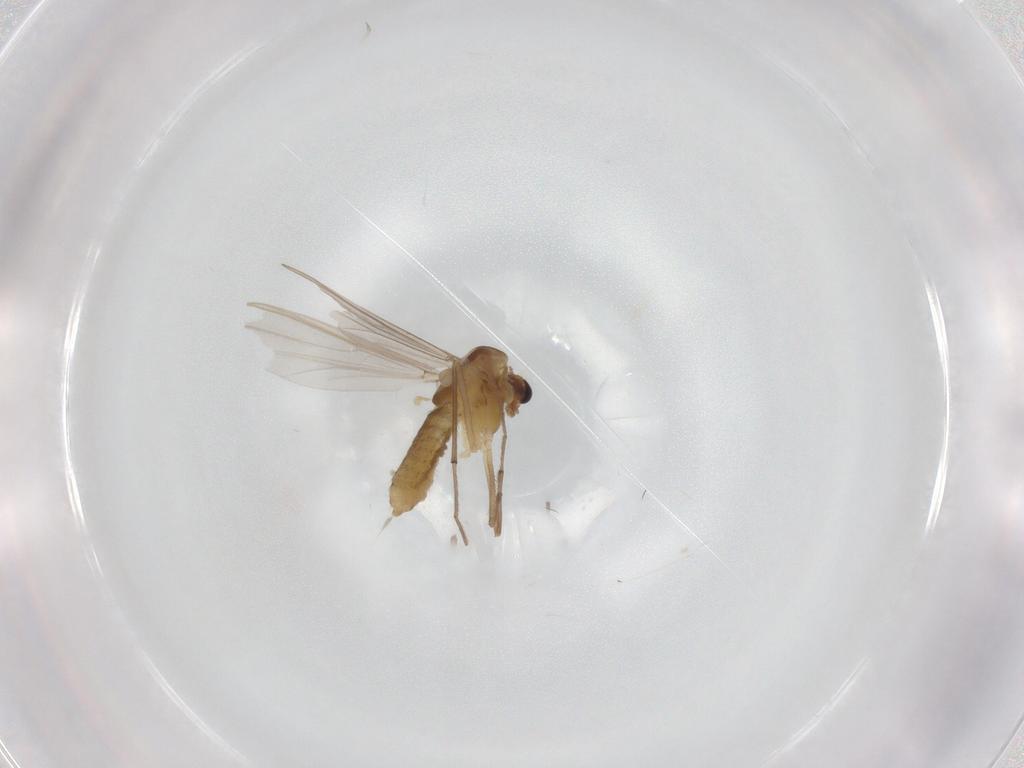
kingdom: Animalia
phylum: Arthropoda
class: Insecta
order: Diptera
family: Chironomidae
